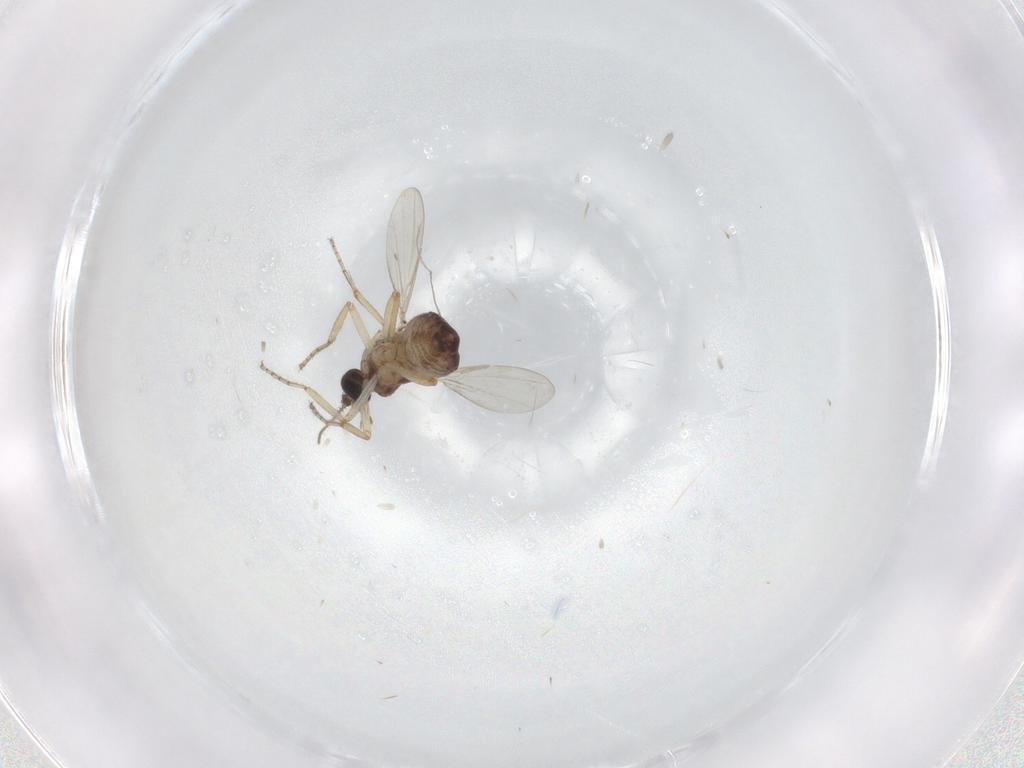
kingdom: Animalia
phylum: Arthropoda
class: Insecta
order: Diptera
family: Ceratopogonidae
